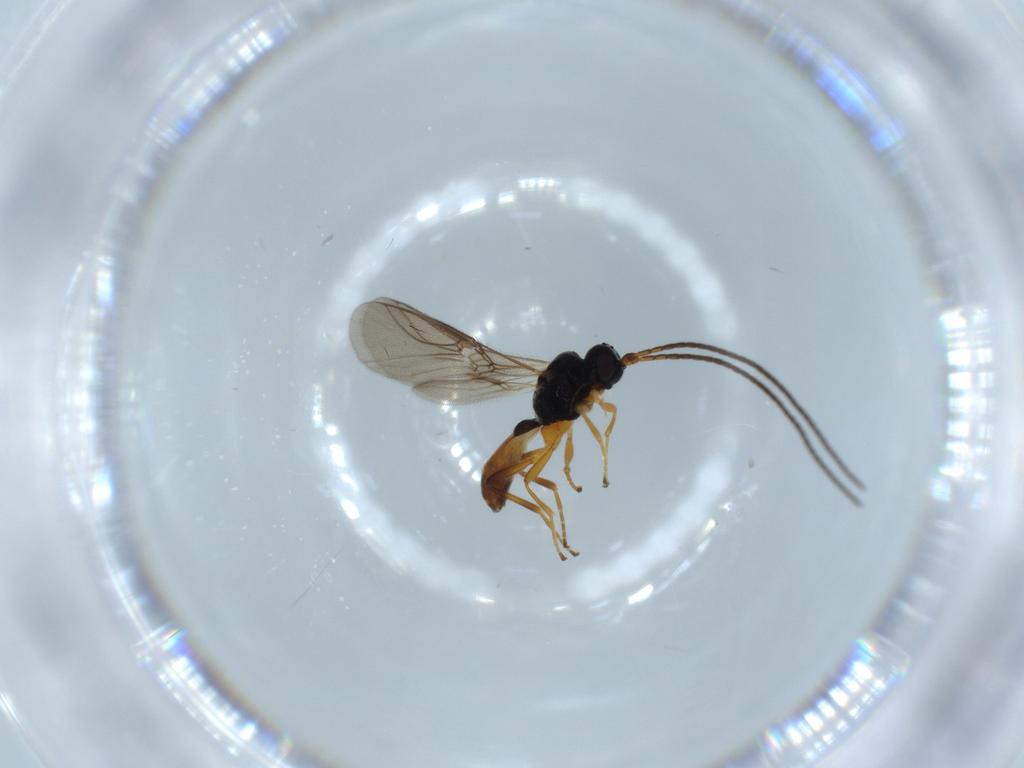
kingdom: Animalia
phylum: Arthropoda
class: Insecta
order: Hymenoptera
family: Braconidae
